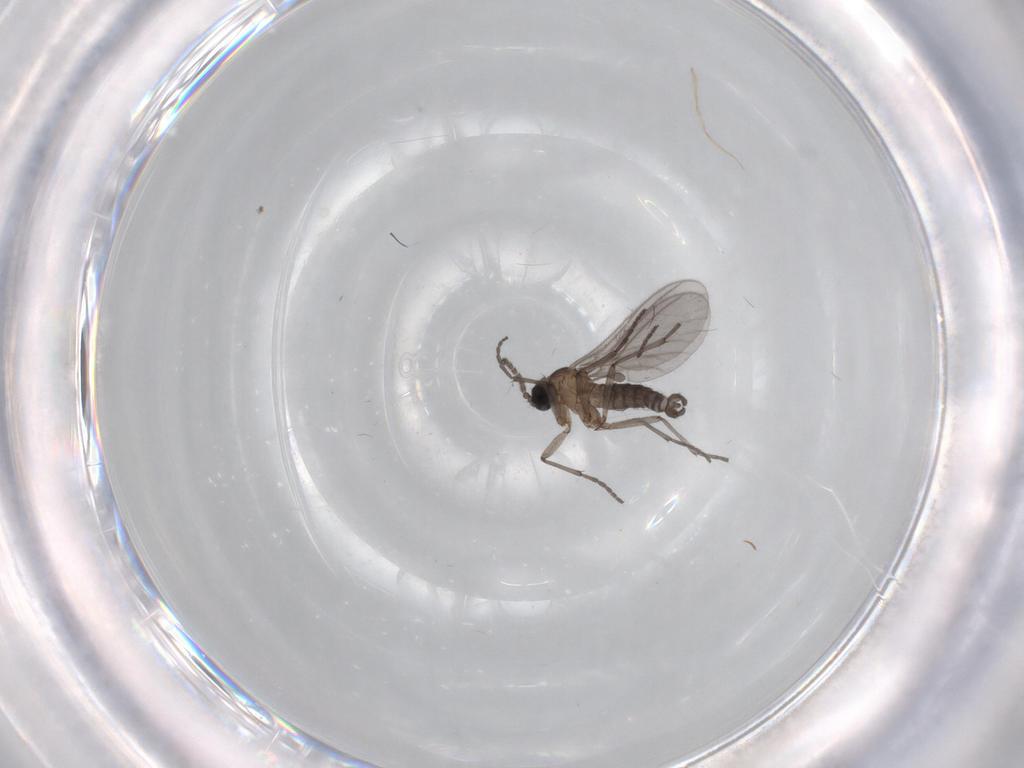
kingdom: Animalia
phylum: Arthropoda
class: Insecta
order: Diptera
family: Sciaridae
